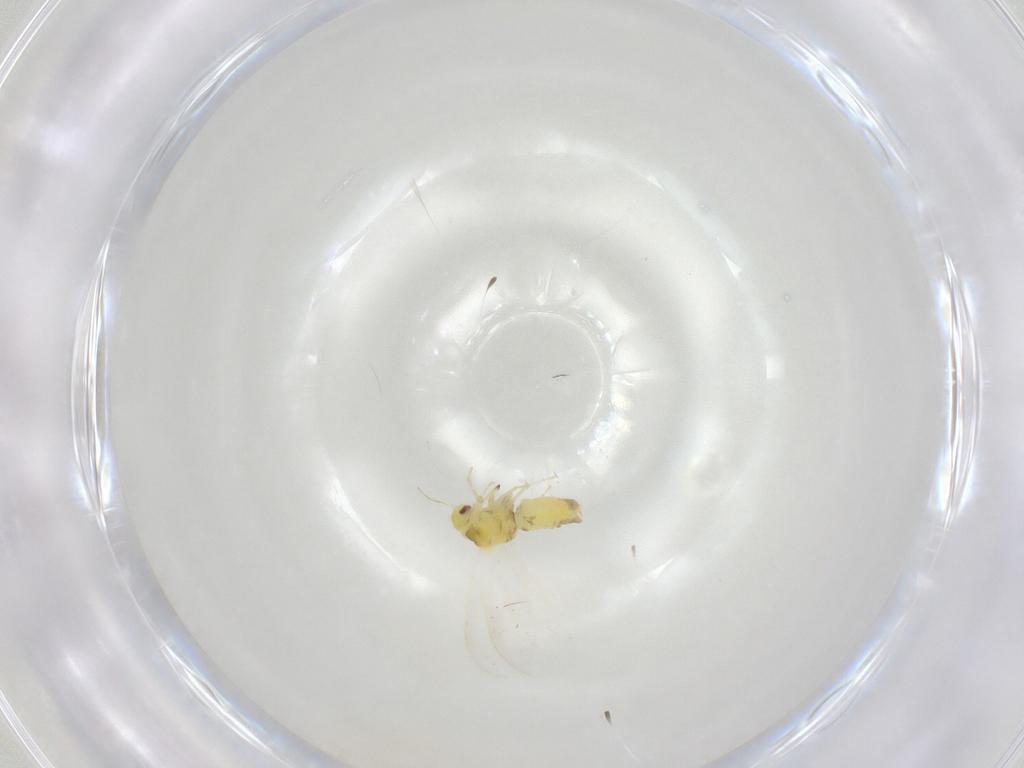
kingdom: Animalia
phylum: Arthropoda
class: Insecta
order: Hemiptera
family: Aleyrodidae
